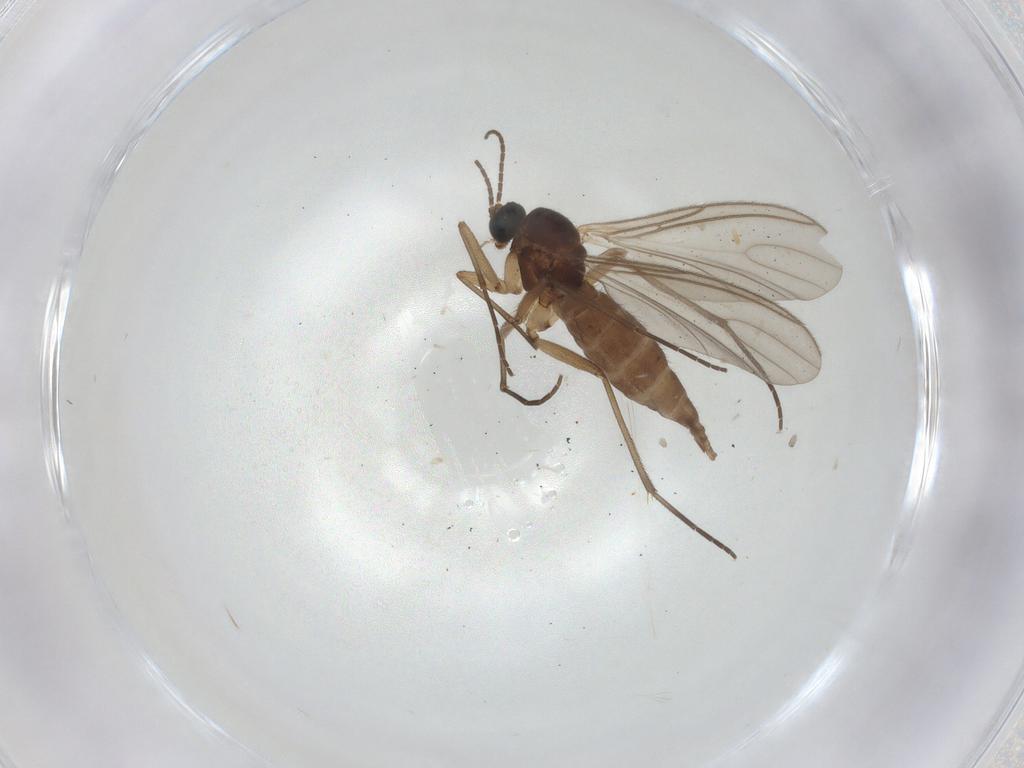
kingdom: Animalia
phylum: Arthropoda
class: Insecta
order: Diptera
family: Sciaridae
